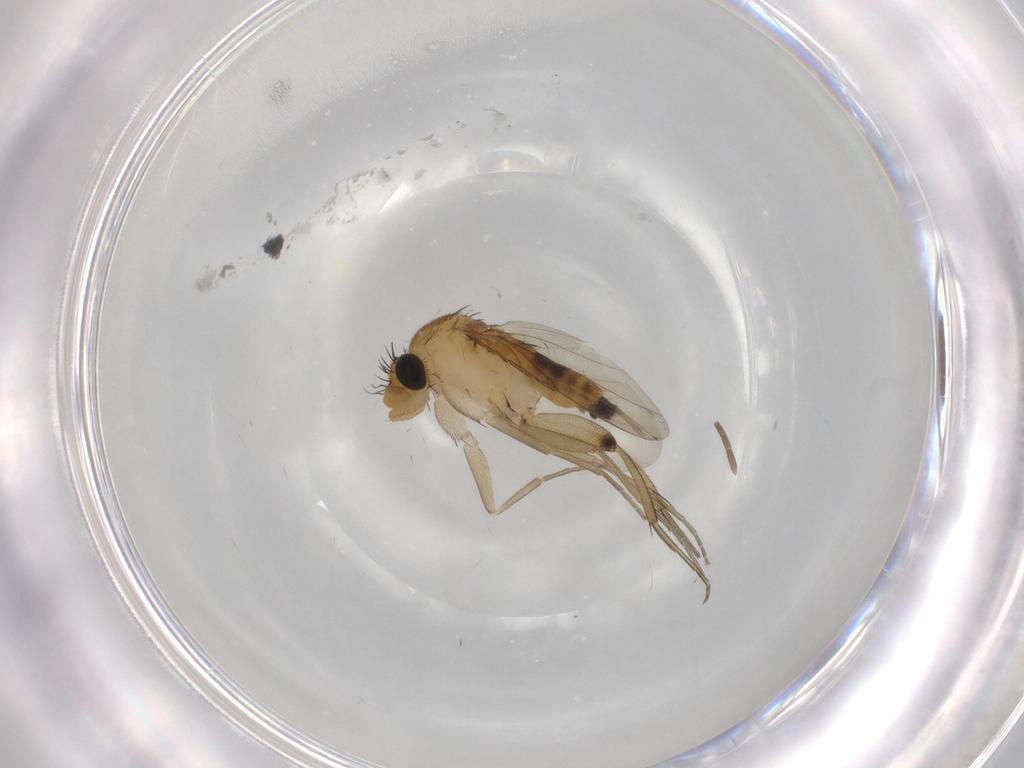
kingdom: Animalia
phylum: Arthropoda
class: Insecta
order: Diptera
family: Phoridae
